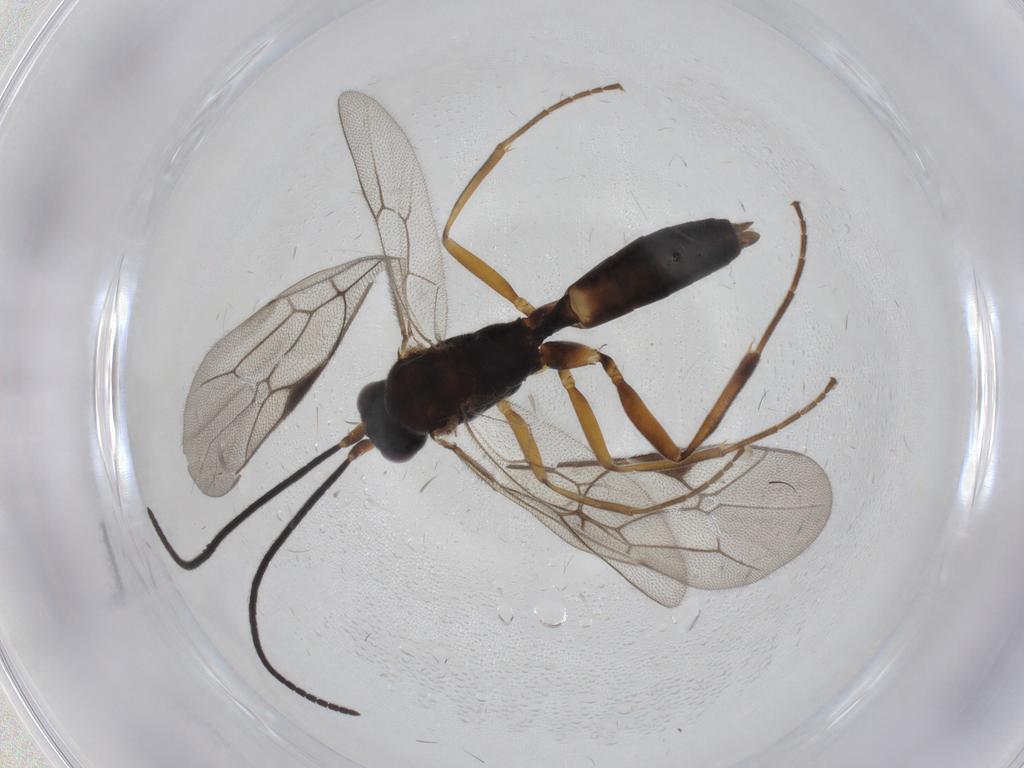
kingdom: Animalia
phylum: Arthropoda
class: Insecta
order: Hymenoptera
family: Ichneumonidae
